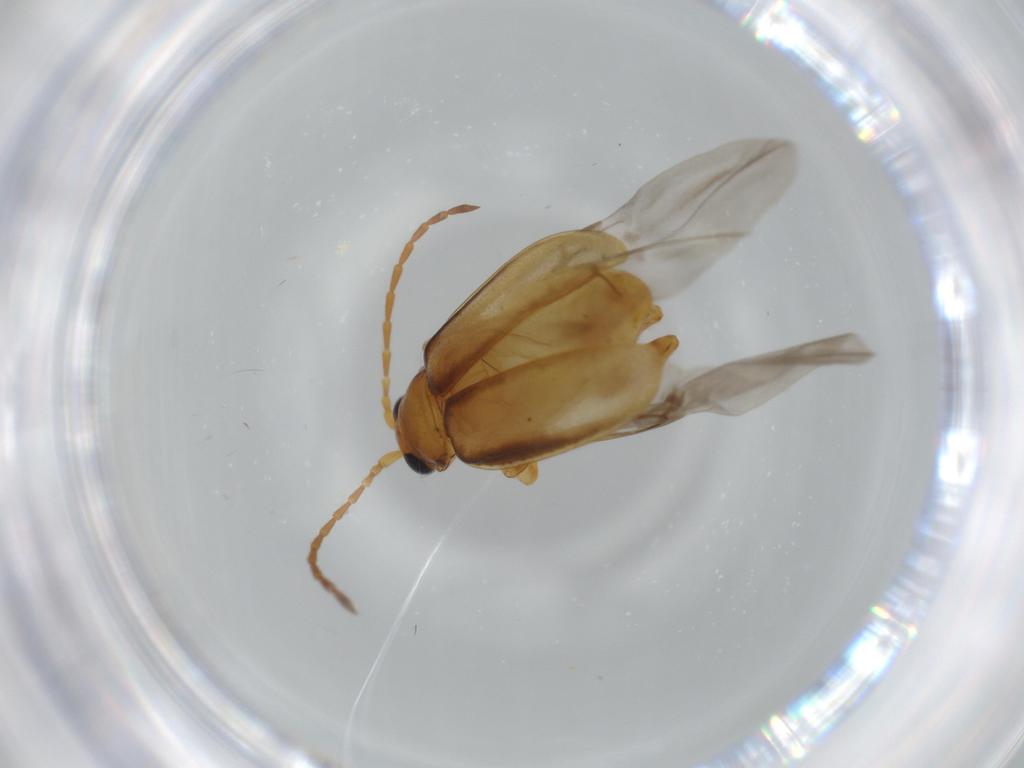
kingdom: Animalia
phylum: Arthropoda
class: Insecta
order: Coleoptera
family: Chrysomelidae
